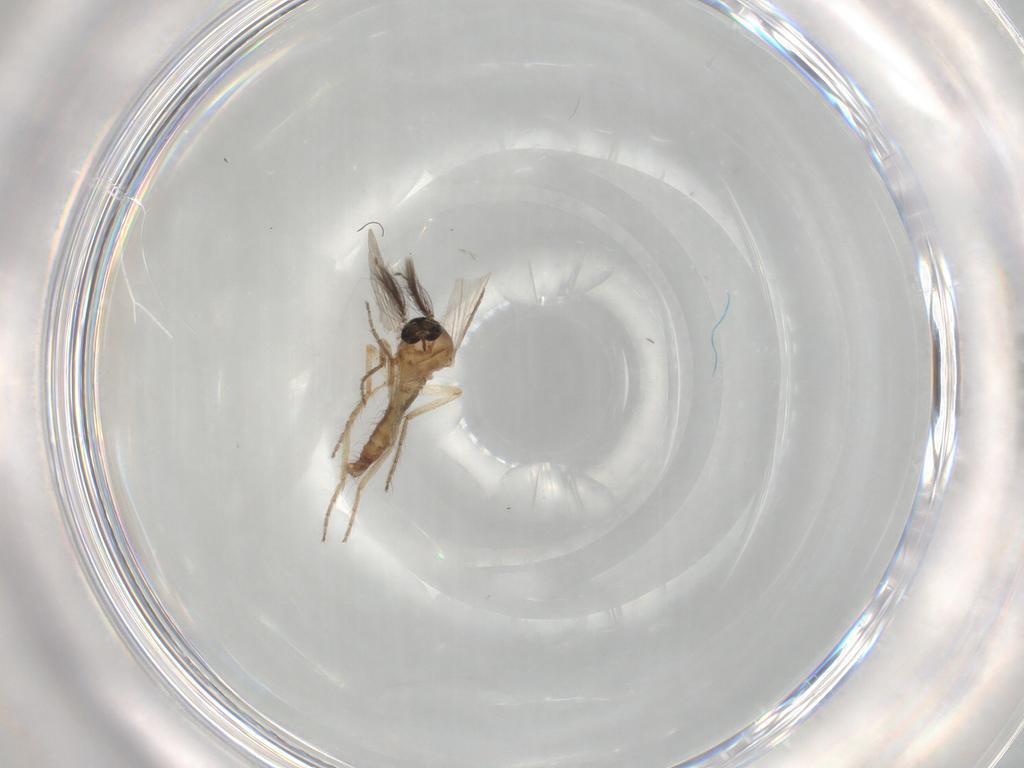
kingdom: Animalia
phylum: Arthropoda
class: Insecta
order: Diptera
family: Ceratopogonidae
